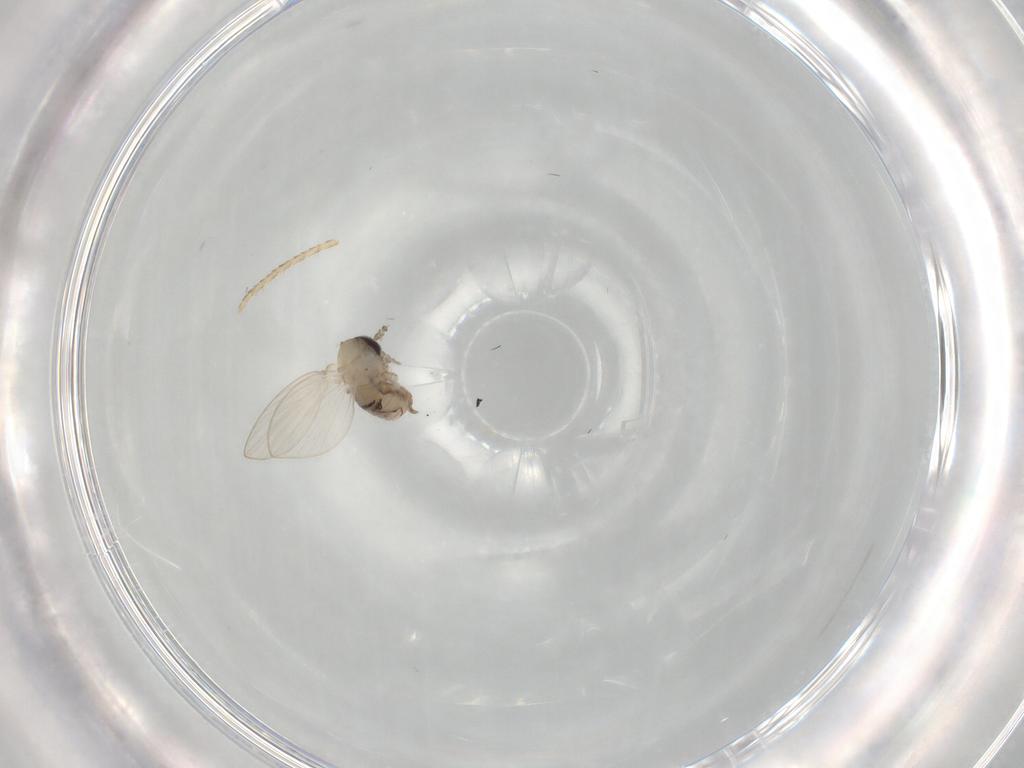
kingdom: Animalia
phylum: Arthropoda
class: Insecta
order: Diptera
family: Psychodidae
